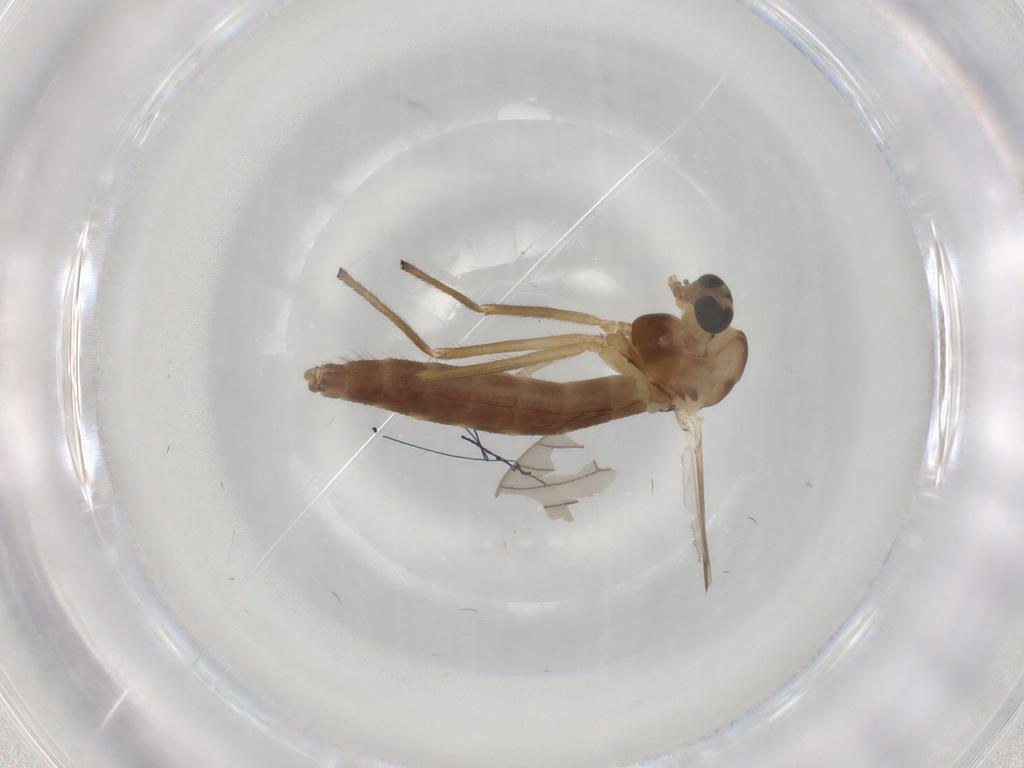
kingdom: Animalia
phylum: Arthropoda
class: Insecta
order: Diptera
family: Chironomidae
